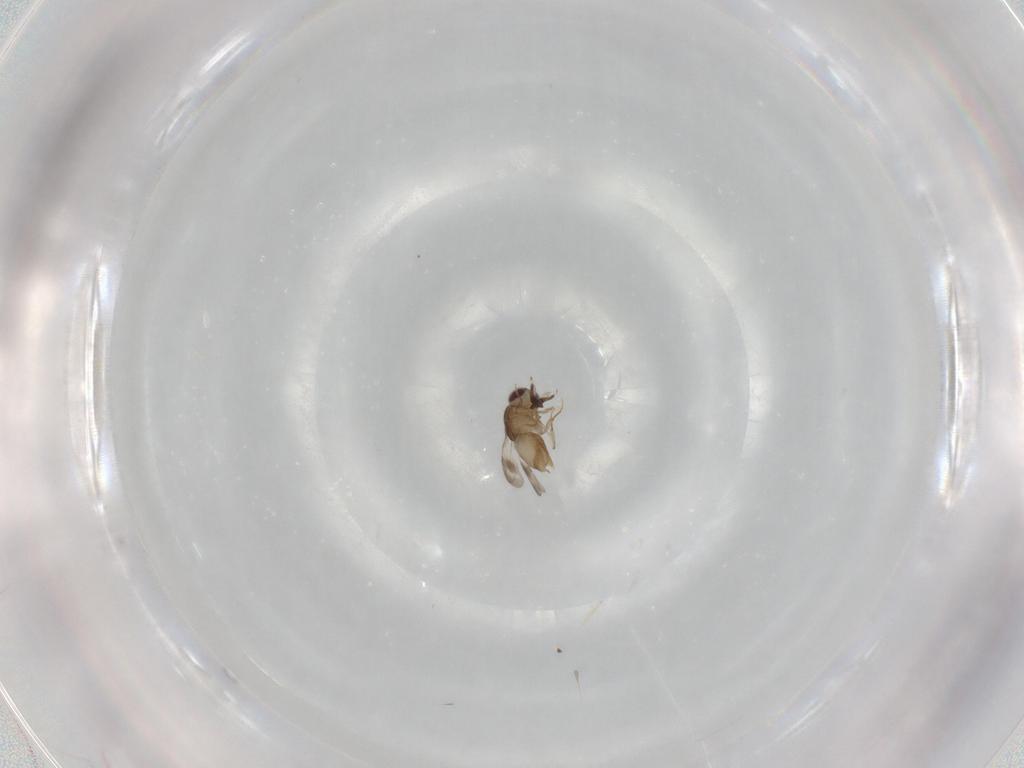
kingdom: Animalia
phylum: Arthropoda
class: Insecta
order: Hymenoptera
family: Ceraphronidae
